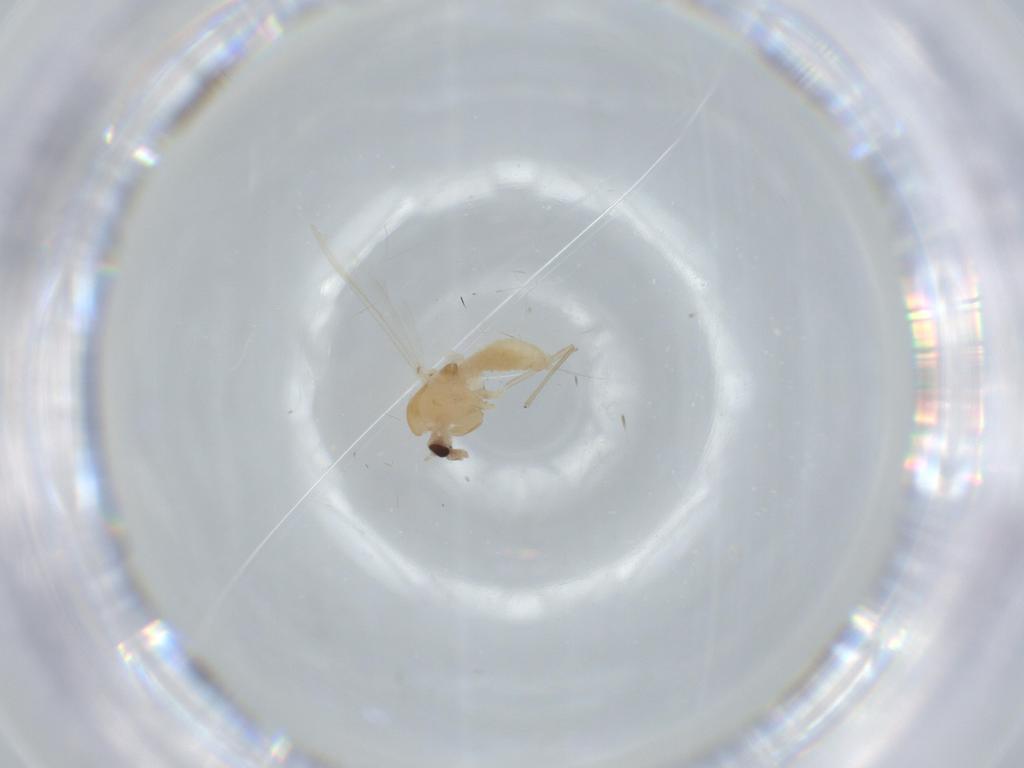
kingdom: Animalia
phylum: Arthropoda
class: Insecta
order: Diptera
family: Chironomidae
